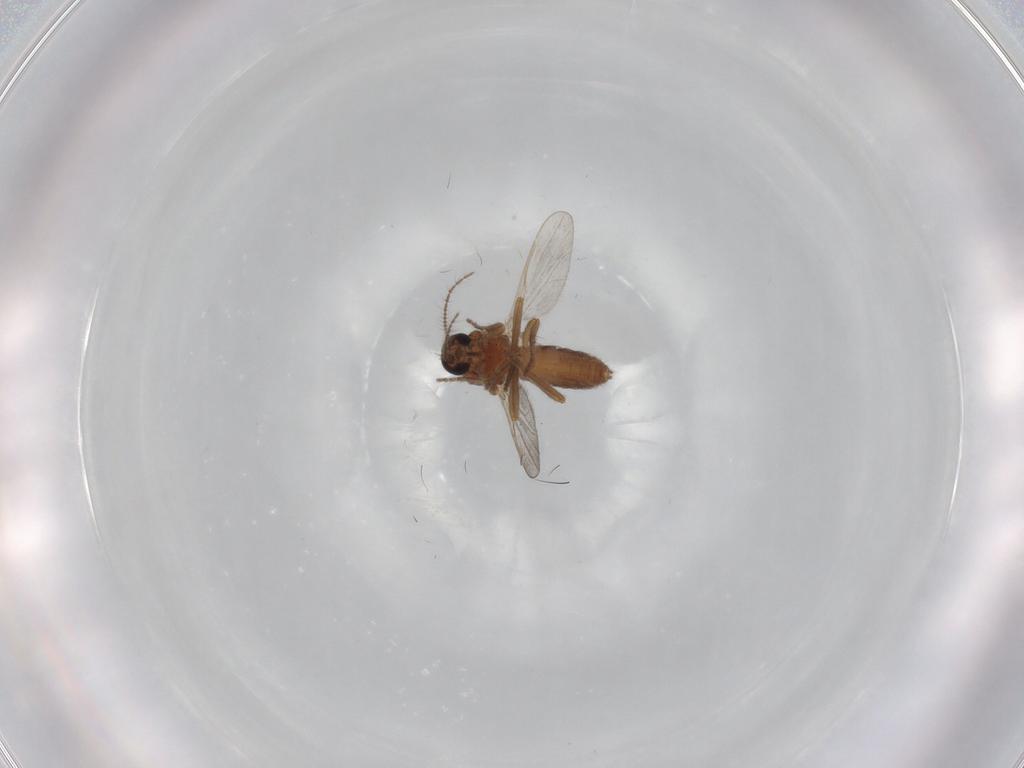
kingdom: Animalia
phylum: Arthropoda
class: Insecta
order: Diptera
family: Ceratopogonidae
